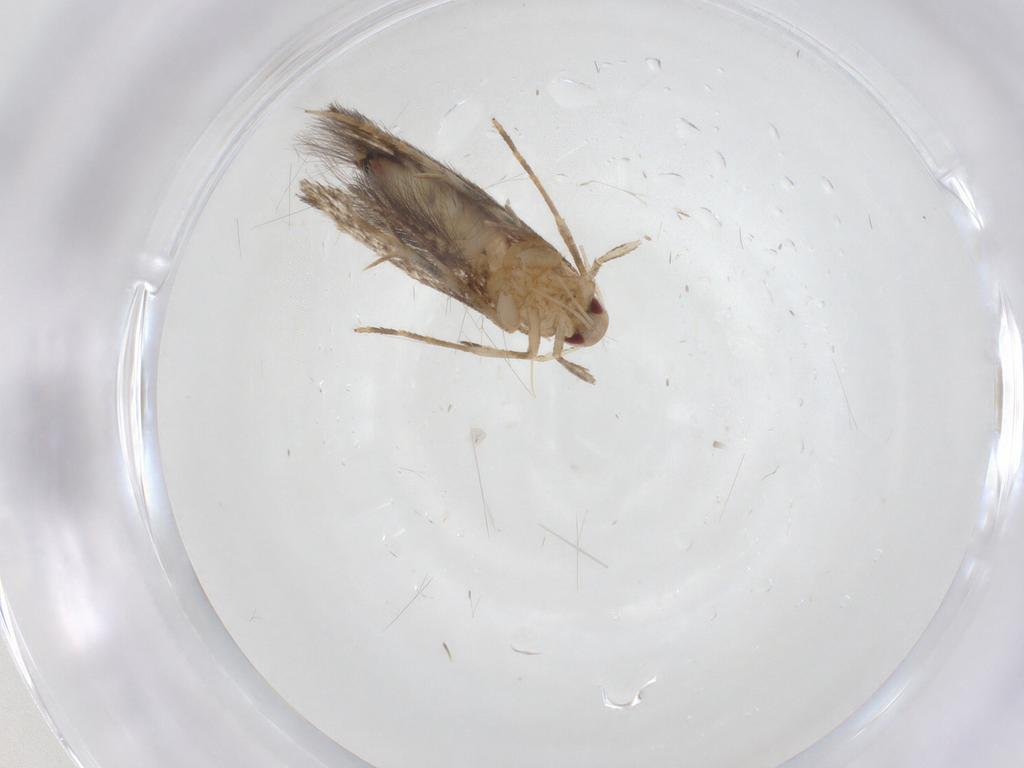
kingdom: Animalia
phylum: Arthropoda
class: Insecta
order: Lepidoptera
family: Cosmopterigidae
